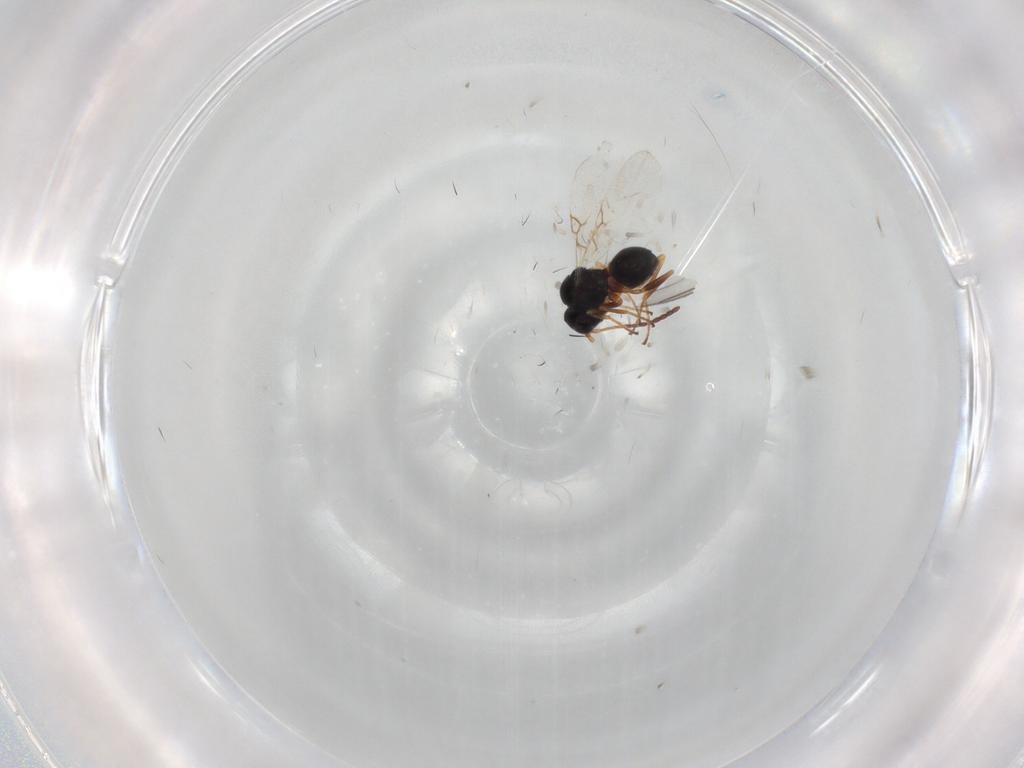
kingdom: Animalia
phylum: Arthropoda
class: Insecta
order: Hymenoptera
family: Figitidae
